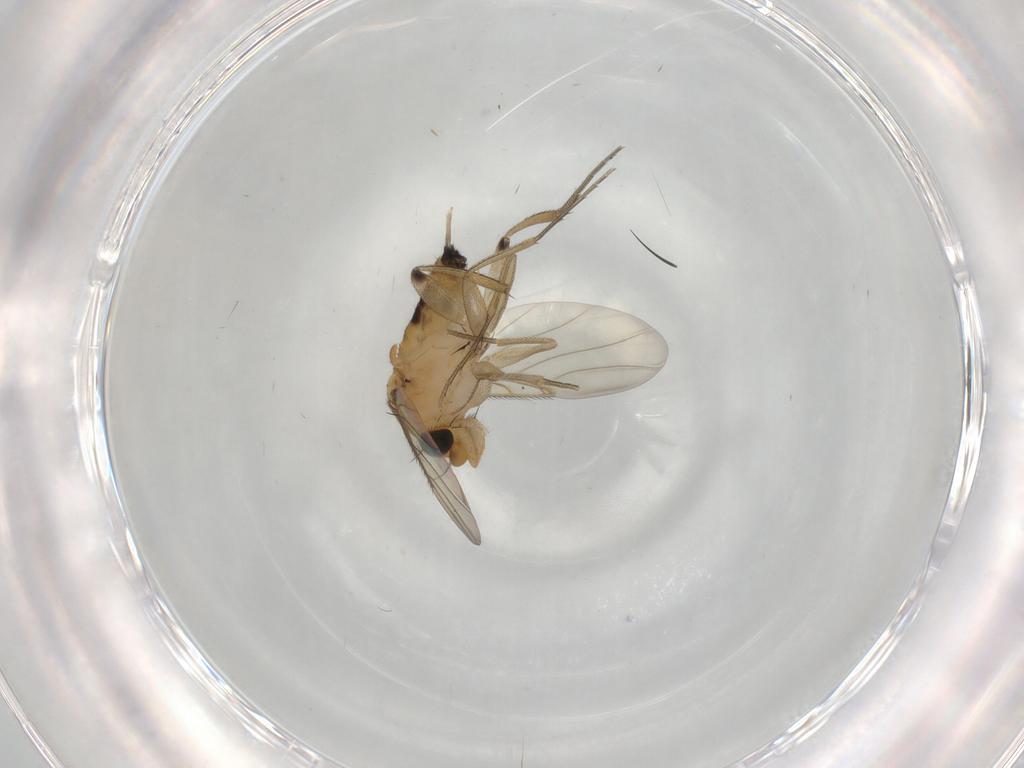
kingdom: Animalia
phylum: Arthropoda
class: Insecta
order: Diptera
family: Phoridae
